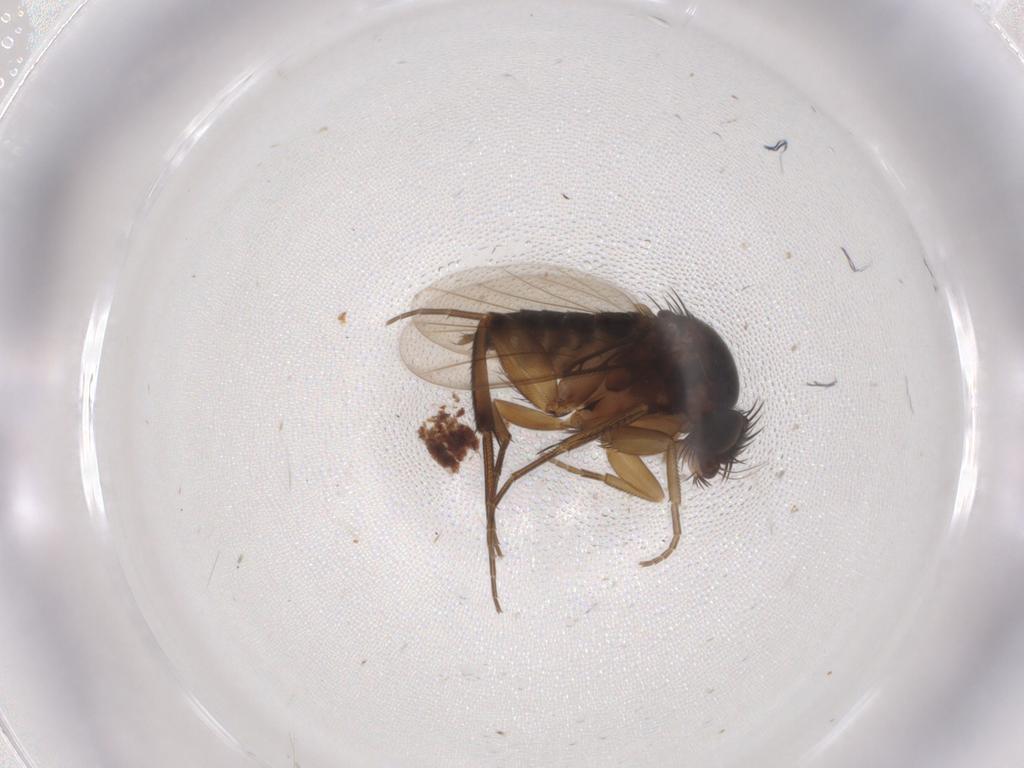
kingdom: Animalia
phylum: Arthropoda
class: Insecta
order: Diptera
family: Phoridae
